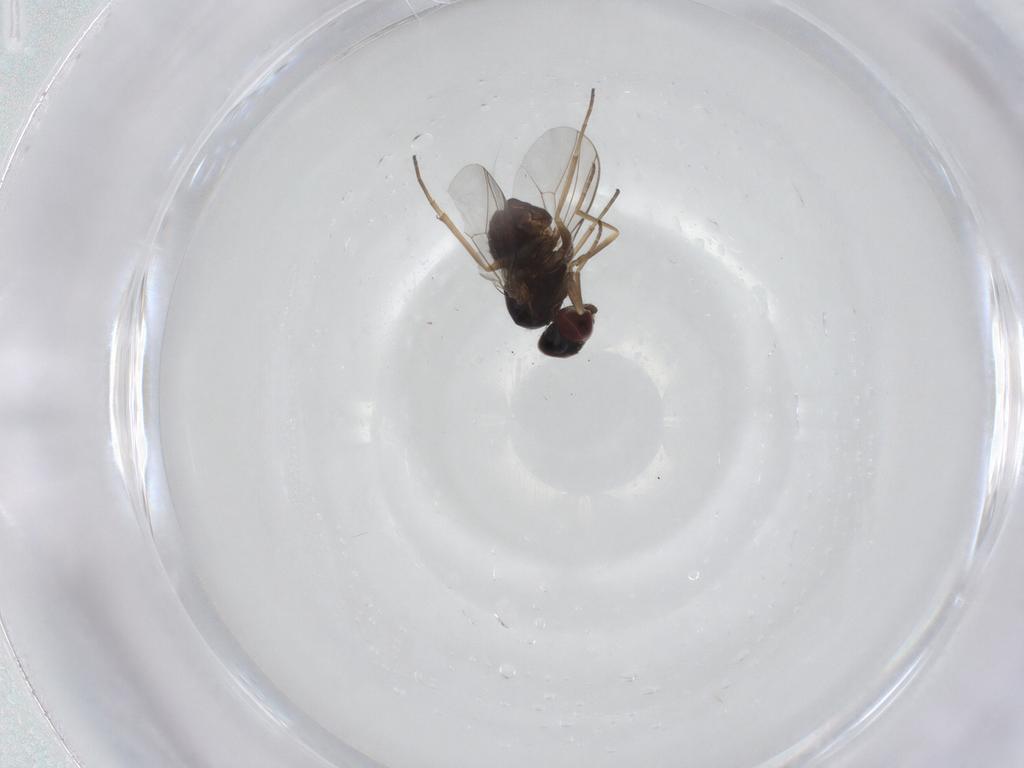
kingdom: Animalia
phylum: Arthropoda
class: Insecta
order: Diptera
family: Dolichopodidae
